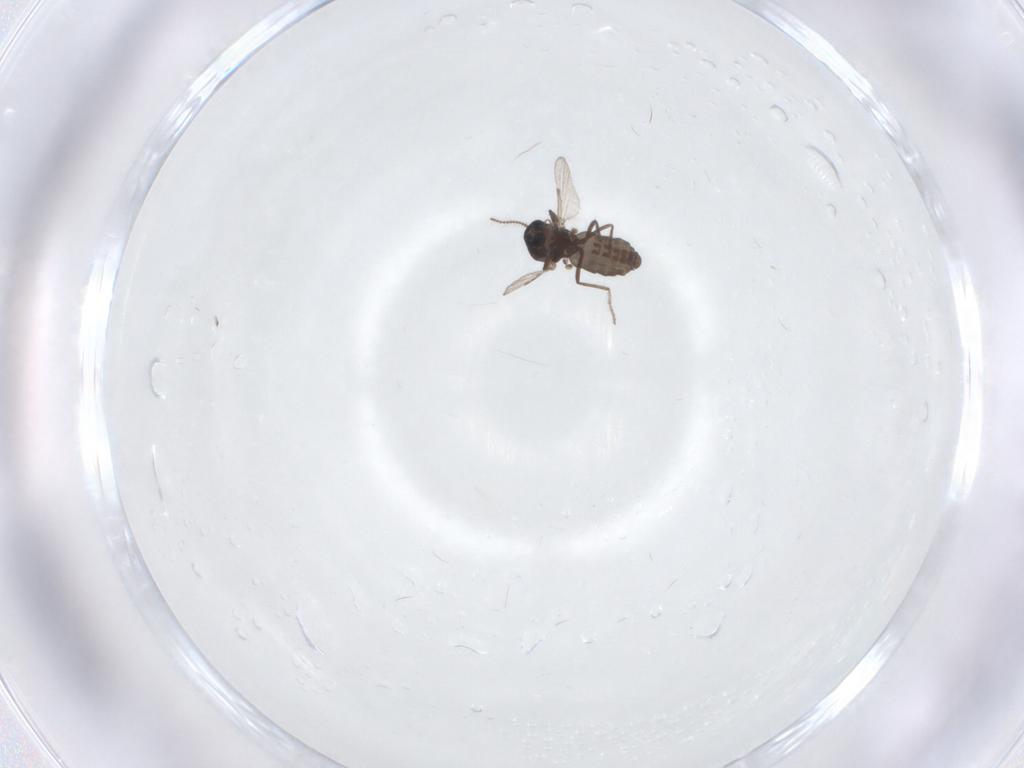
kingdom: Animalia
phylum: Arthropoda
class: Insecta
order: Diptera
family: Ceratopogonidae
